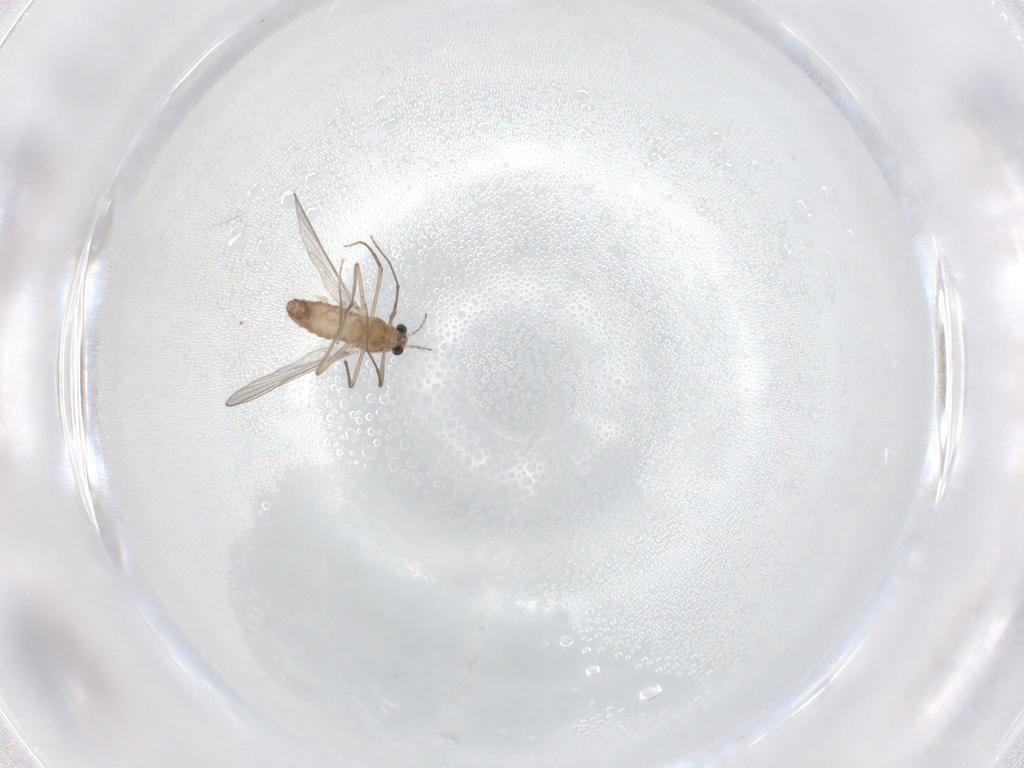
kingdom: Animalia
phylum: Arthropoda
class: Insecta
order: Diptera
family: Chironomidae
